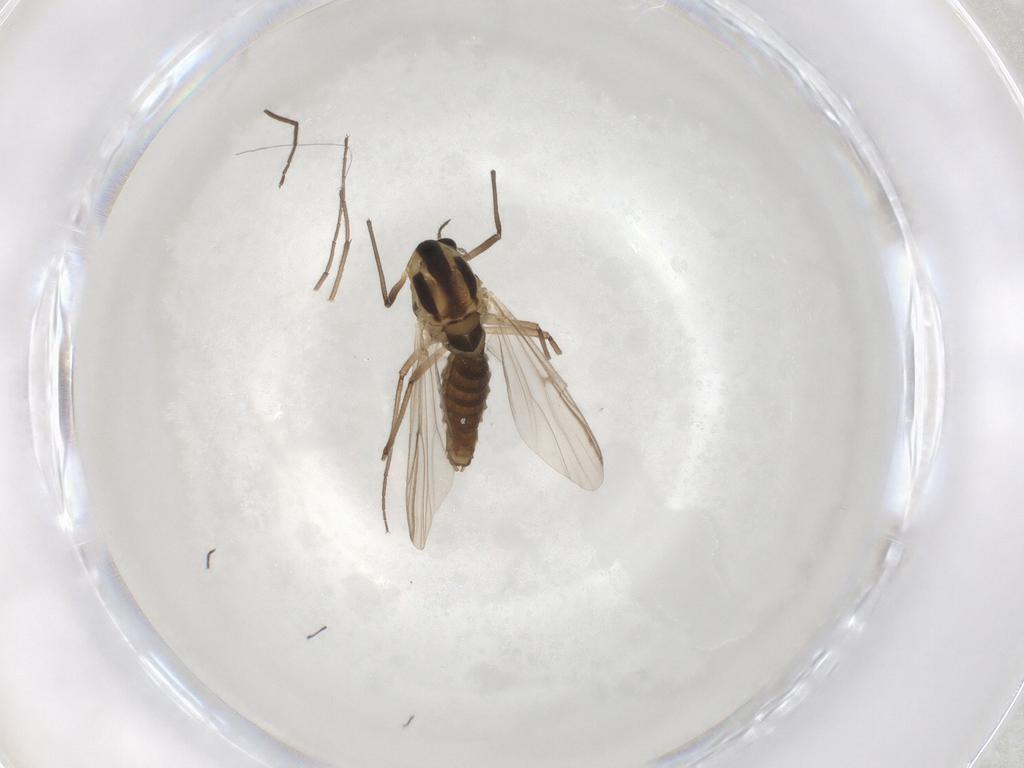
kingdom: Animalia
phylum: Arthropoda
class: Insecta
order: Diptera
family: Chironomidae
